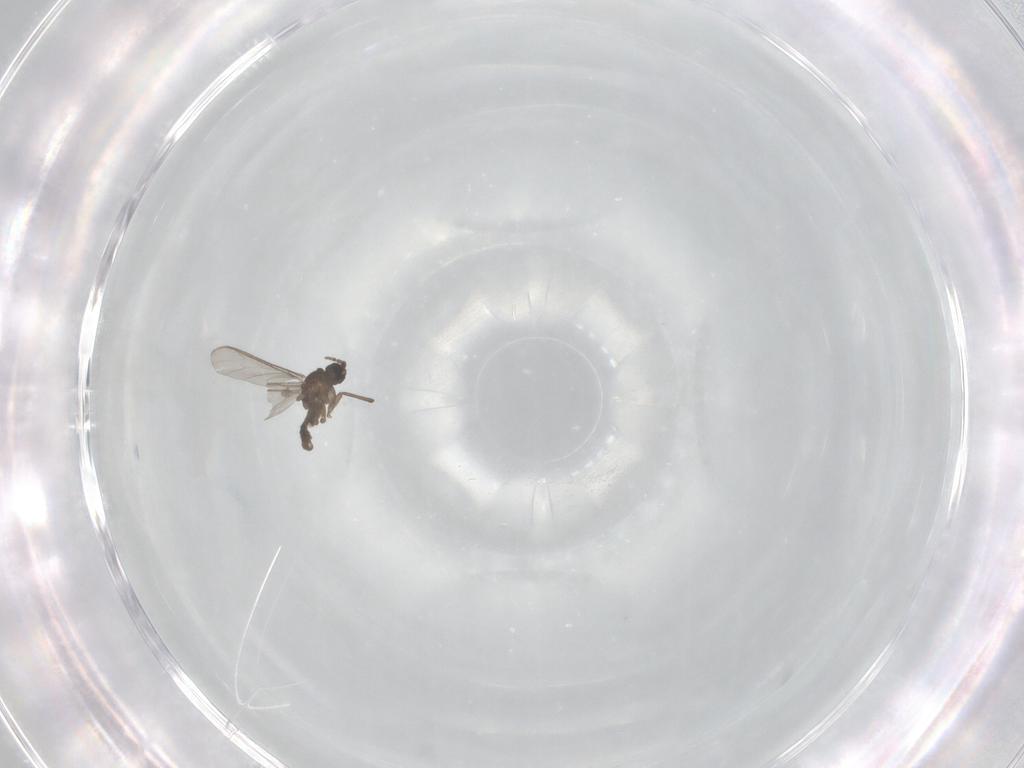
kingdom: Animalia
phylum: Arthropoda
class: Insecta
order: Diptera
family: Sciaridae
